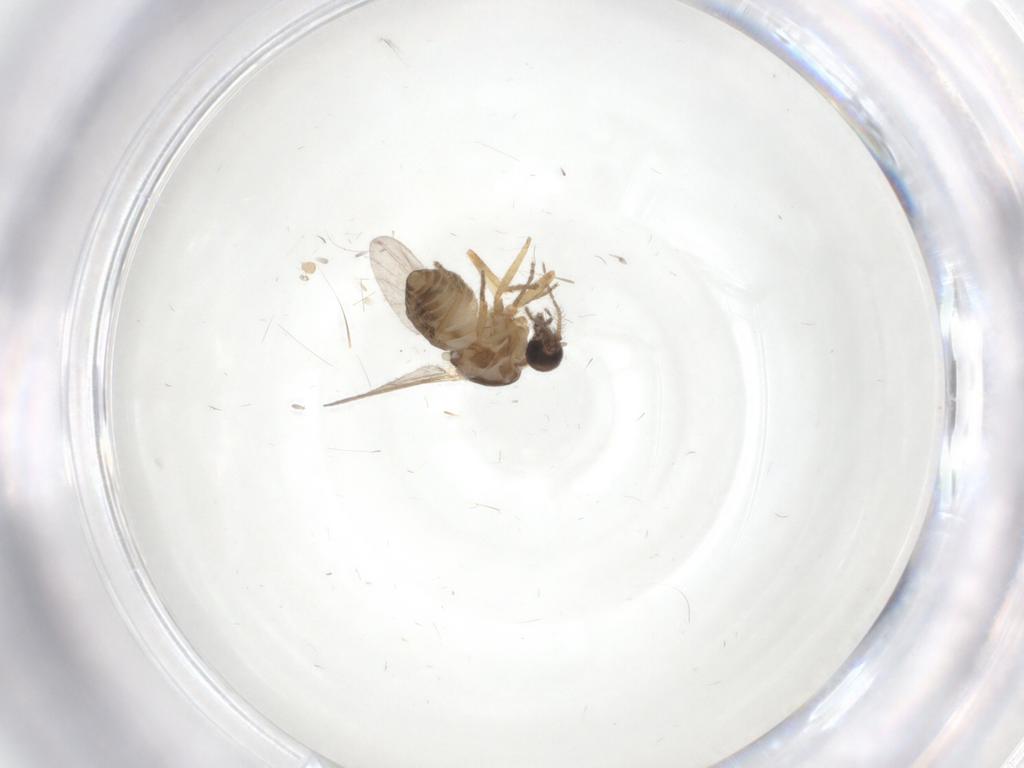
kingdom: Animalia
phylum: Arthropoda
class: Insecta
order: Diptera
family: Ceratopogonidae
